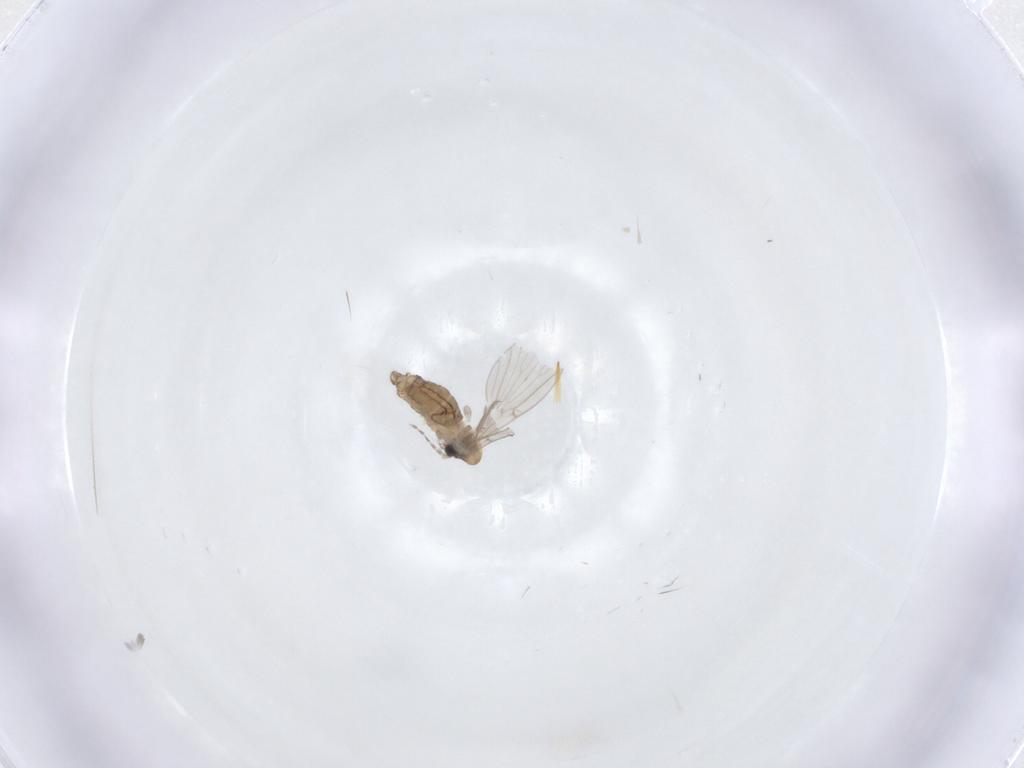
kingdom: Animalia
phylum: Arthropoda
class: Insecta
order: Diptera
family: Psychodidae
